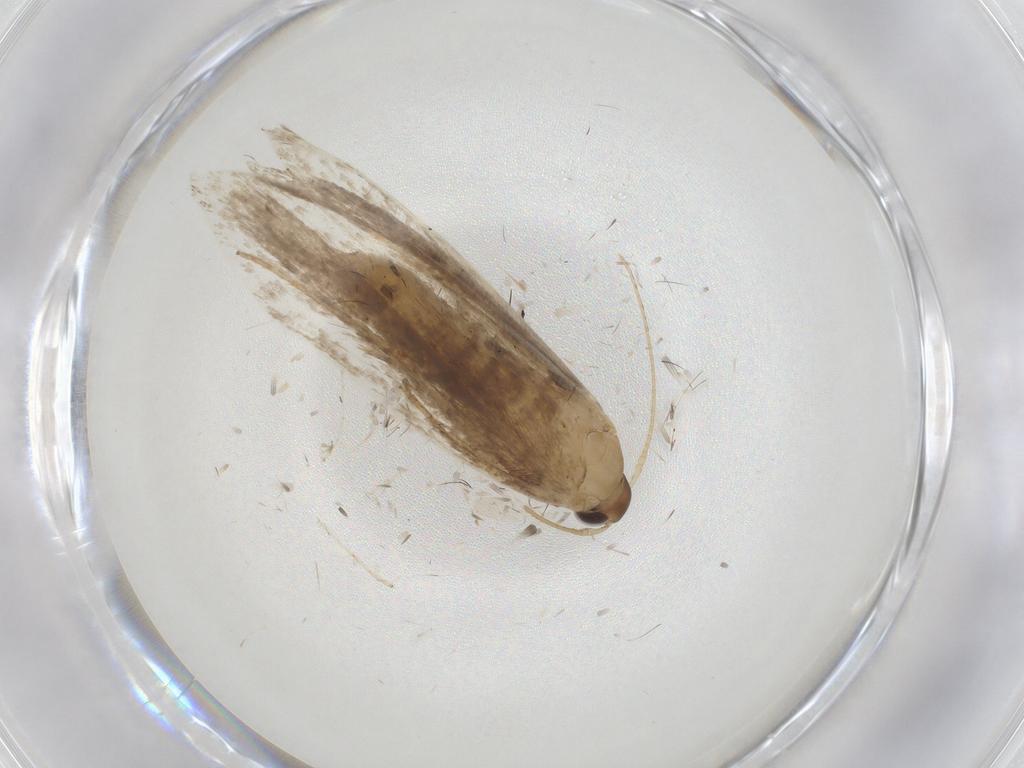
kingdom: Animalia
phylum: Arthropoda
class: Insecta
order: Lepidoptera
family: Gelechiidae
